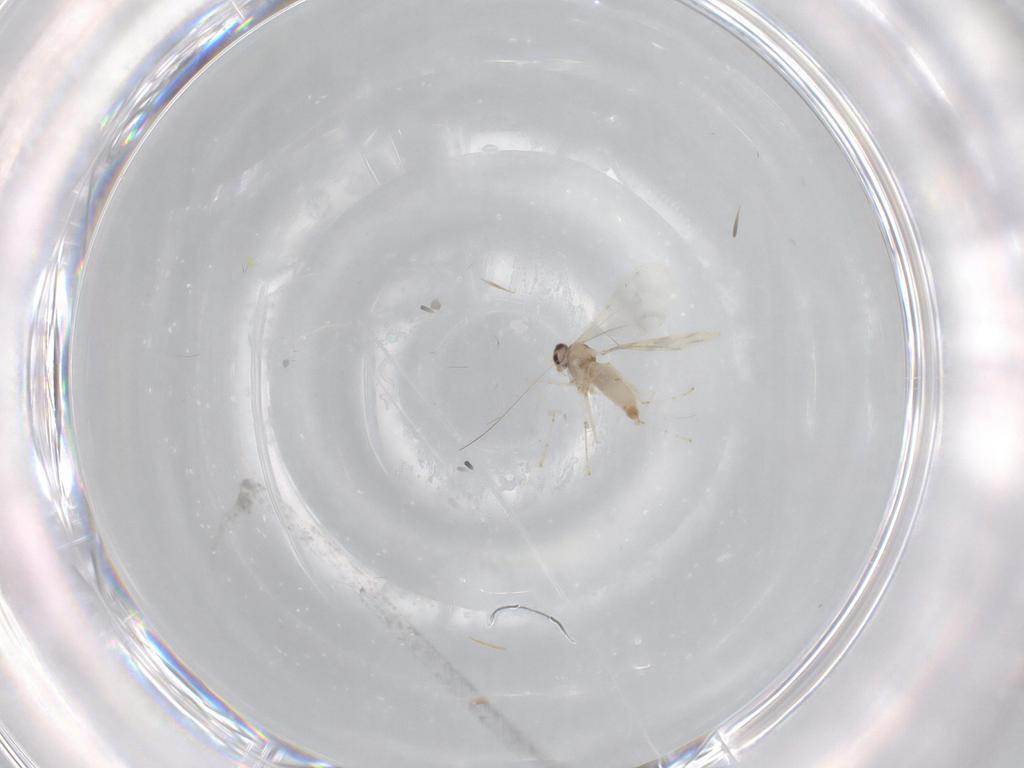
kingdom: Animalia
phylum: Arthropoda
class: Insecta
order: Diptera
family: Cecidomyiidae
